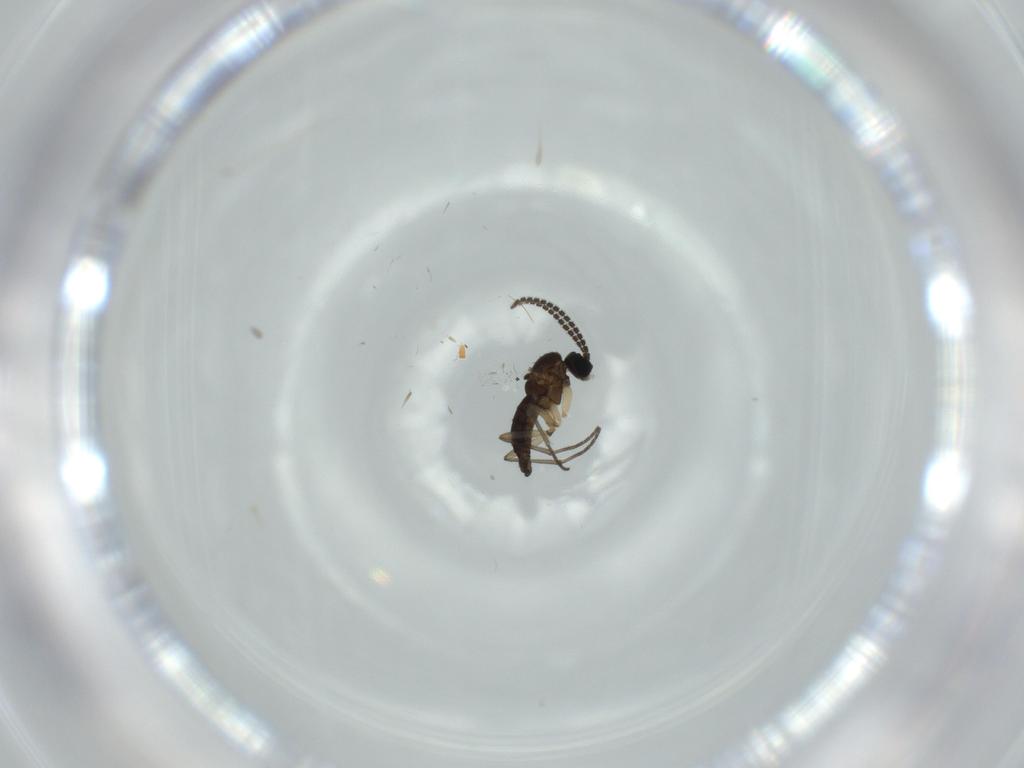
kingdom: Animalia
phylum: Arthropoda
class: Insecta
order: Diptera
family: Sciaridae
